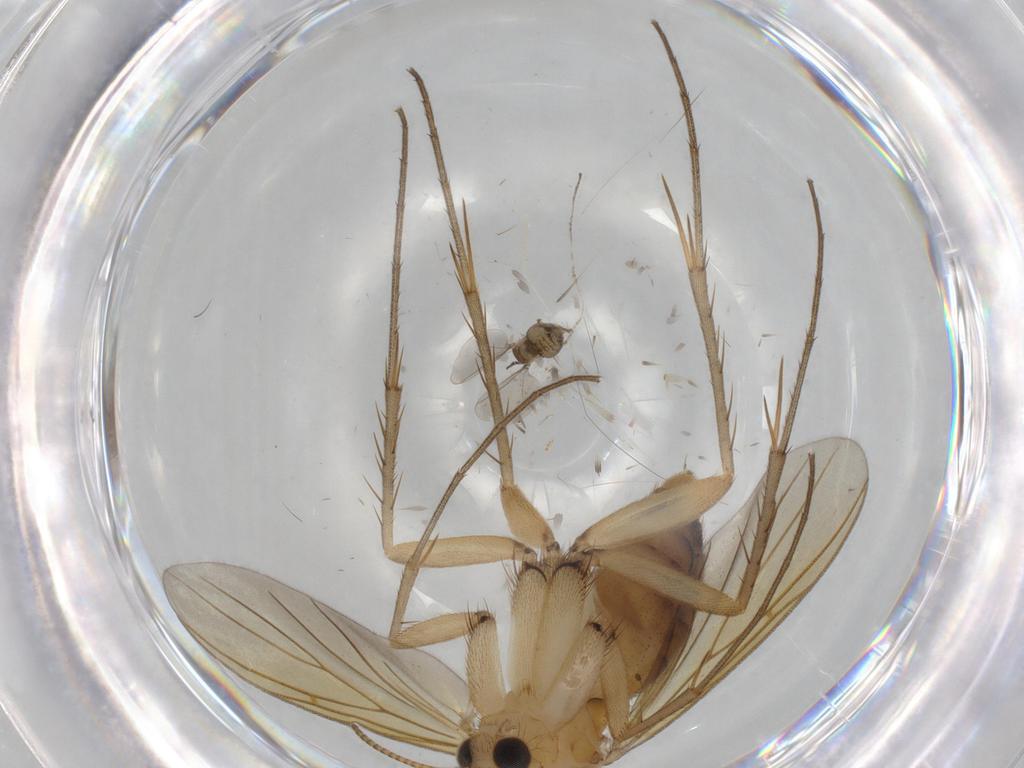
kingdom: Animalia
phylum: Arthropoda
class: Insecta
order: Diptera
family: Cecidomyiidae
